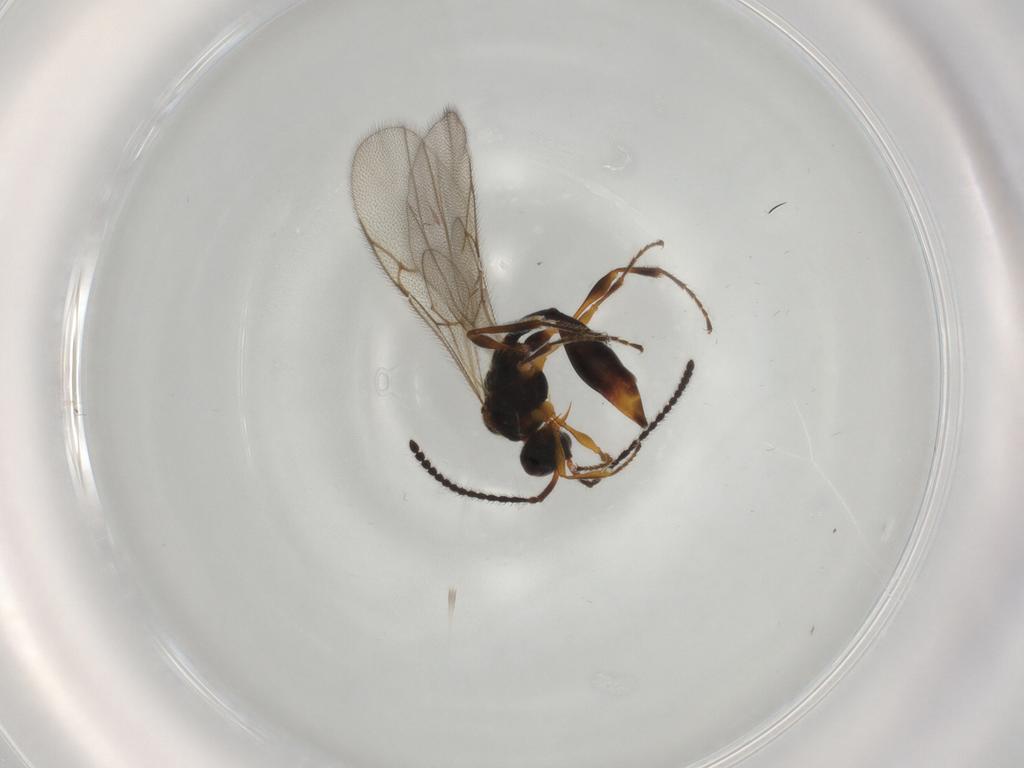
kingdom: Animalia
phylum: Arthropoda
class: Insecta
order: Hymenoptera
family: Diapriidae
